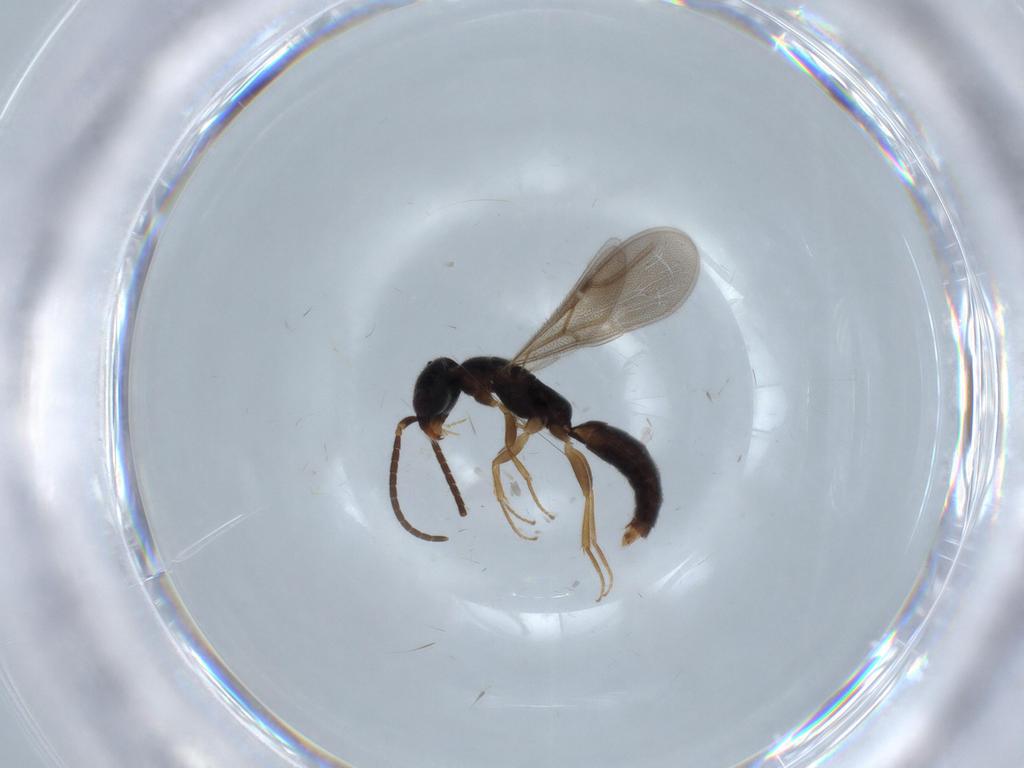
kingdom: Animalia
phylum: Arthropoda
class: Insecta
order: Hymenoptera
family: Bethylidae
